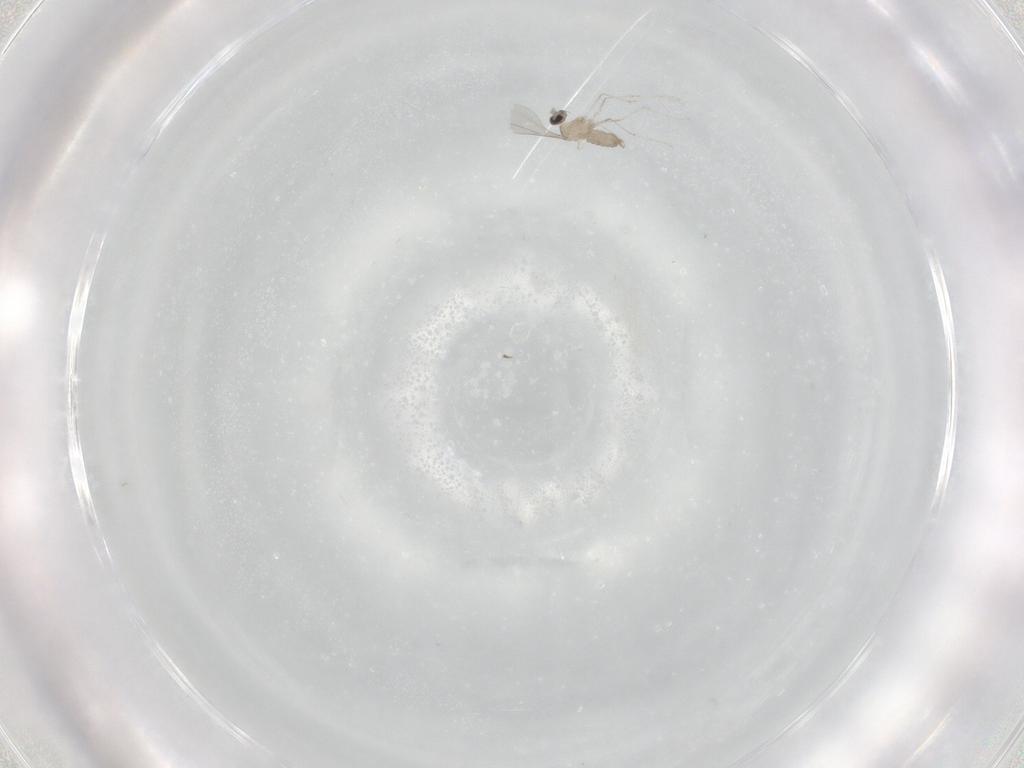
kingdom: Animalia
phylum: Arthropoda
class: Insecta
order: Diptera
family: Cecidomyiidae
